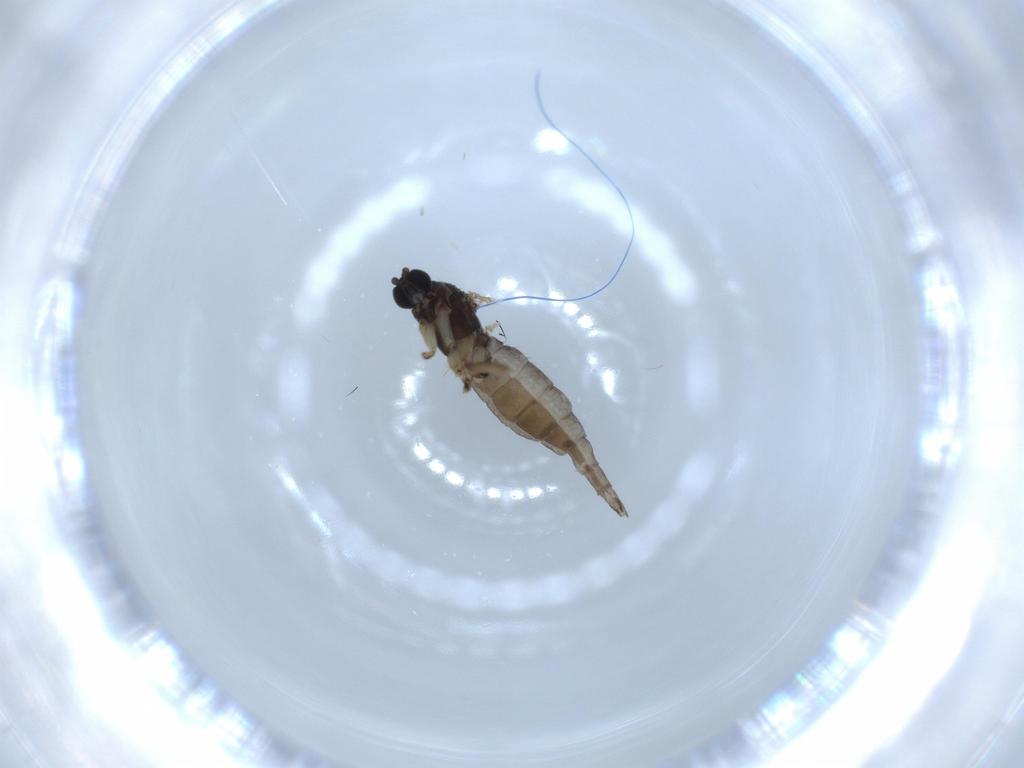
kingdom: Animalia
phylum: Arthropoda
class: Insecta
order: Diptera
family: Sciaridae
